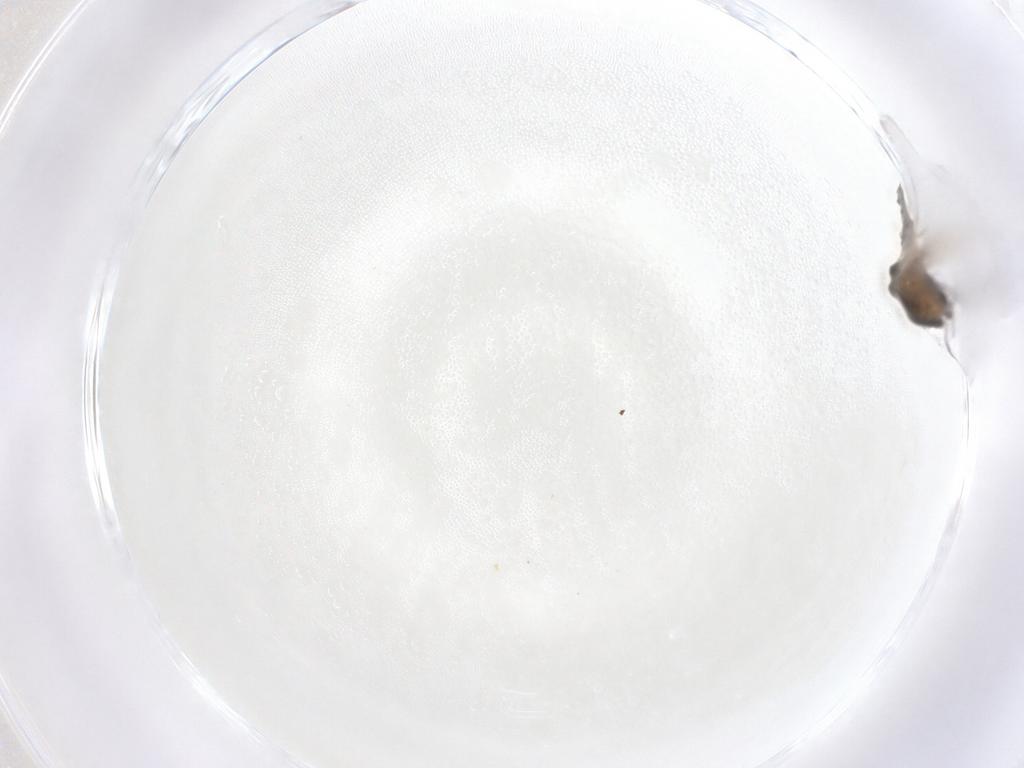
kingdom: Animalia
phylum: Arthropoda
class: Insecta
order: Diptera
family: Chironomidae
